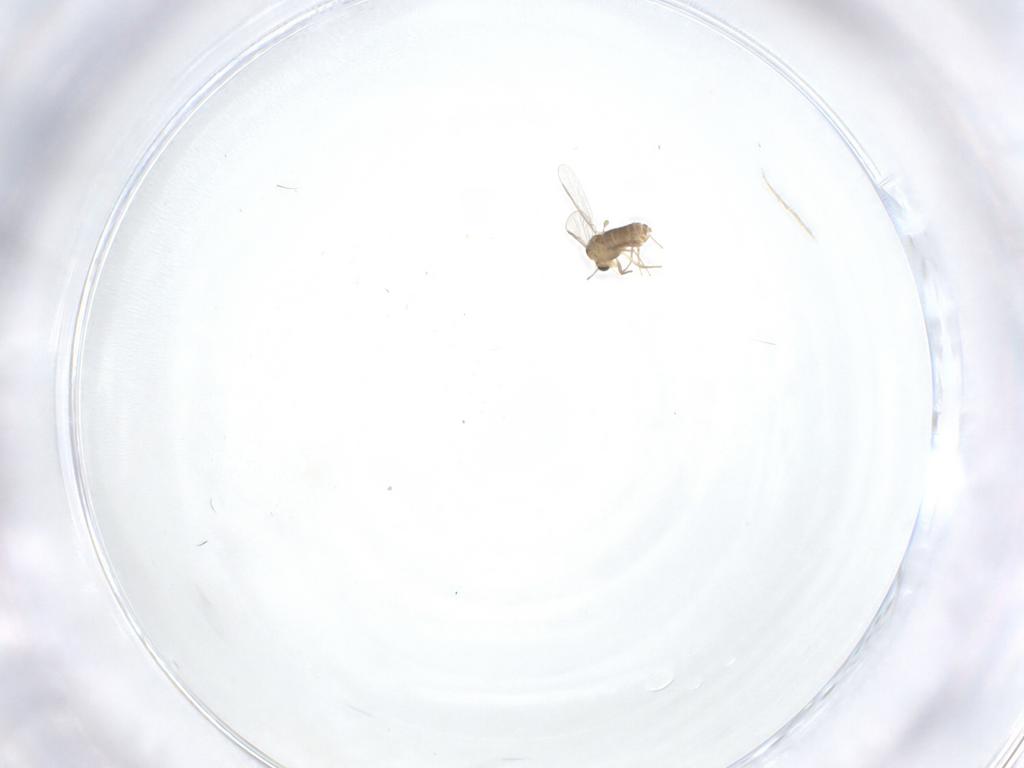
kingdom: Animalia
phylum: Arthropoda
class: Insecta
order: Diptera
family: Chironomidae
